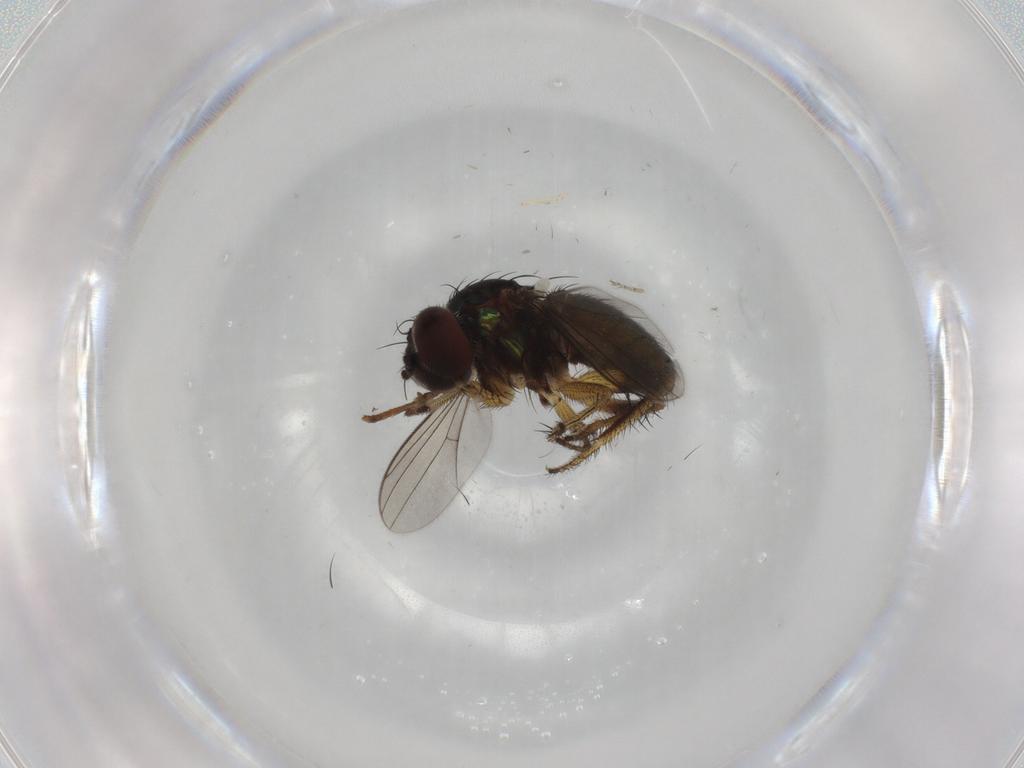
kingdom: Animalia
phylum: Arthropoda
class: Insecta
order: Diptera
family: Dolichopodidae
